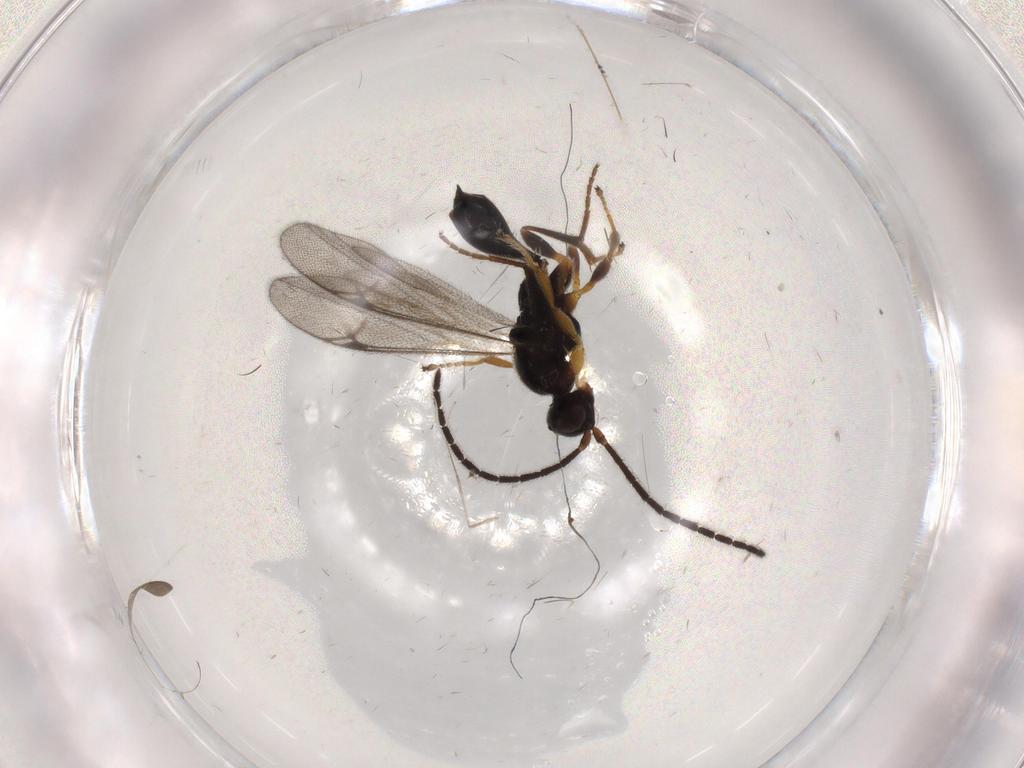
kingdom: Animalia
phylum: Arthropoda
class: Insecta
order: Hymenoptera
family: Proctotrupidae
